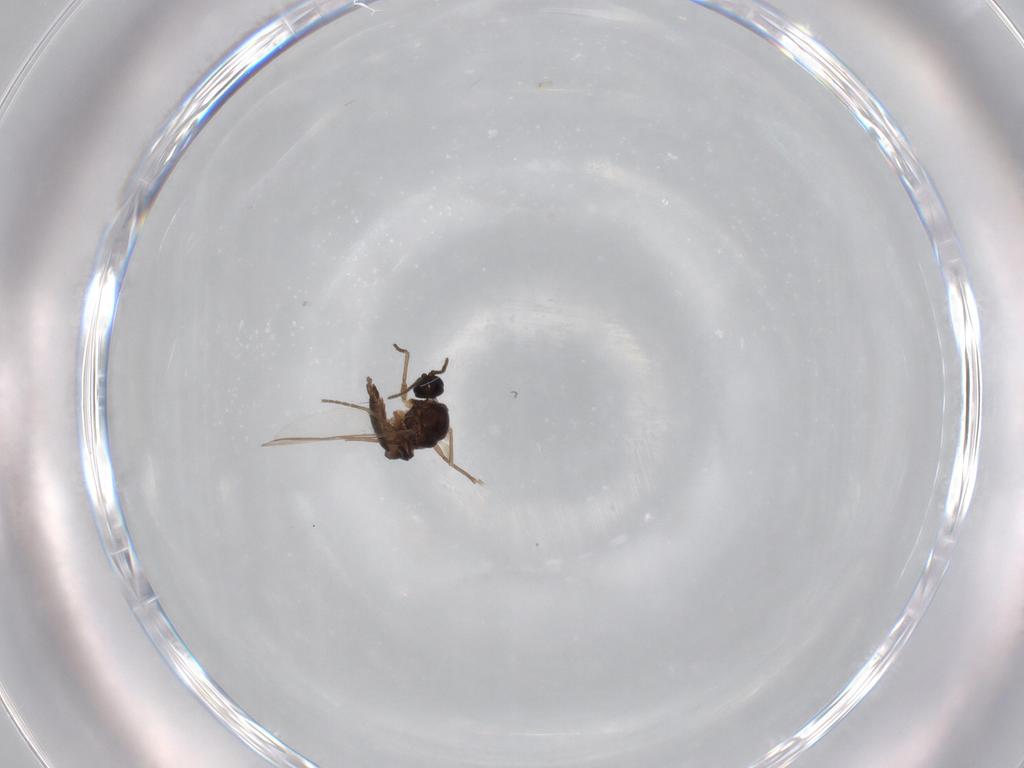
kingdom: Animalia
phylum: Arthropoda
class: Insecta
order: Diptera
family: Sciaridae
